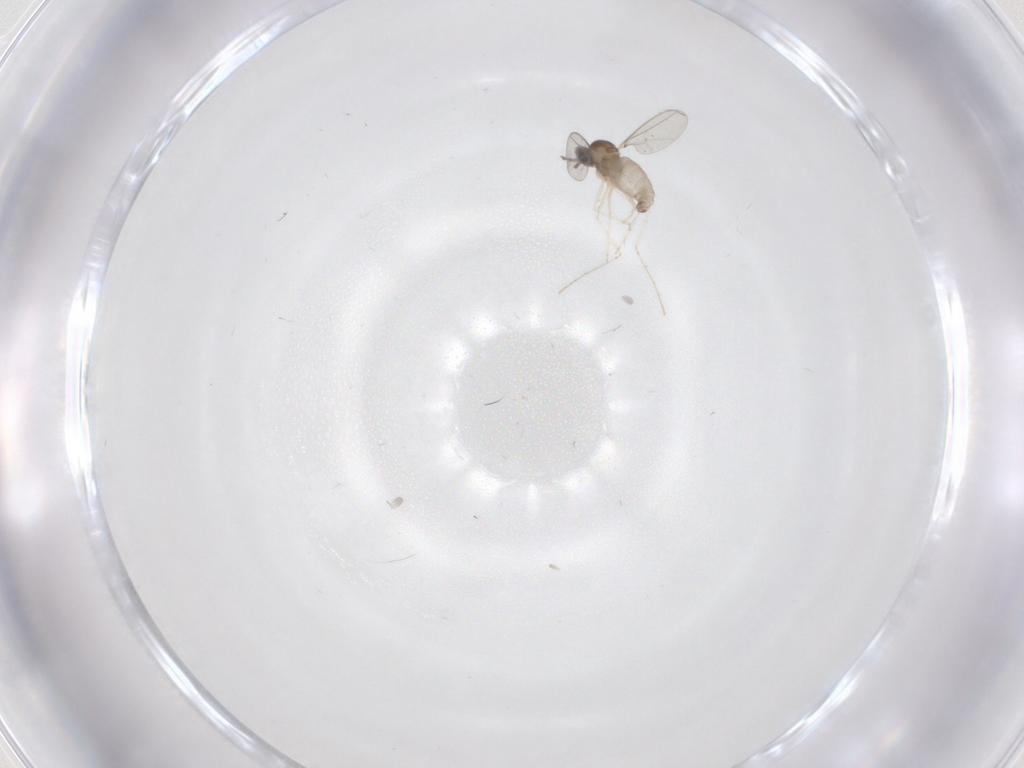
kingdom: Animalia
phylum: Arthropoda
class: Insecta
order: Diptera
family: Cecidomyiidae
